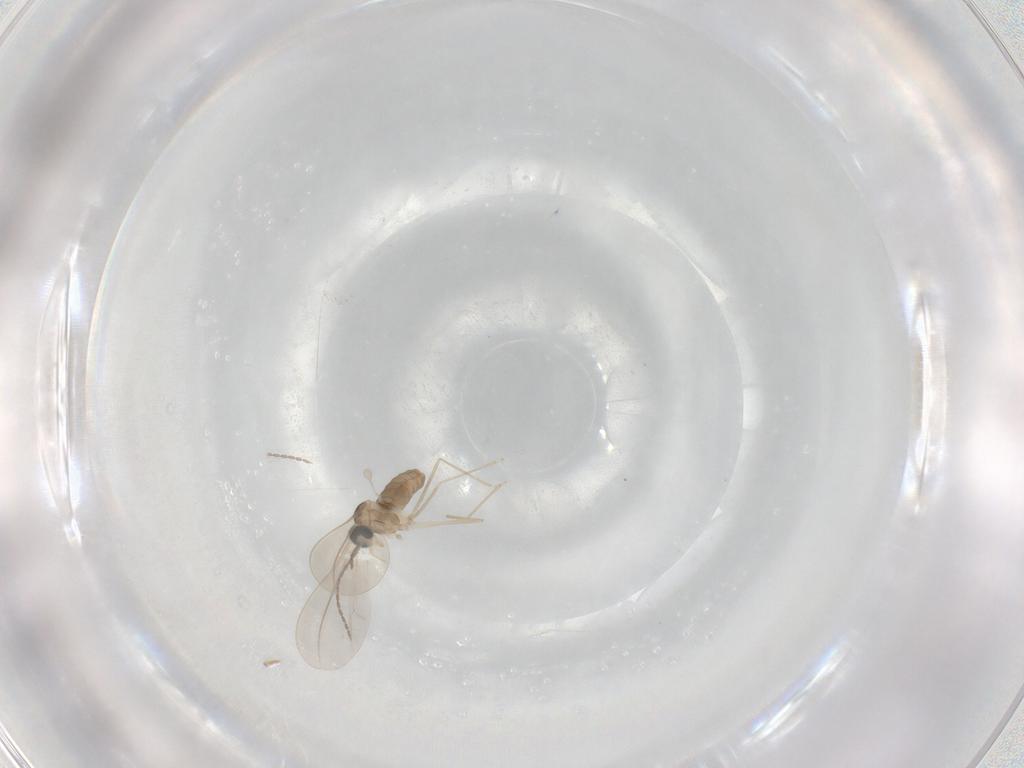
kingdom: Animalia
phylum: Arthropoda
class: Insecta
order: Diptera
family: Cecidomyiidae
